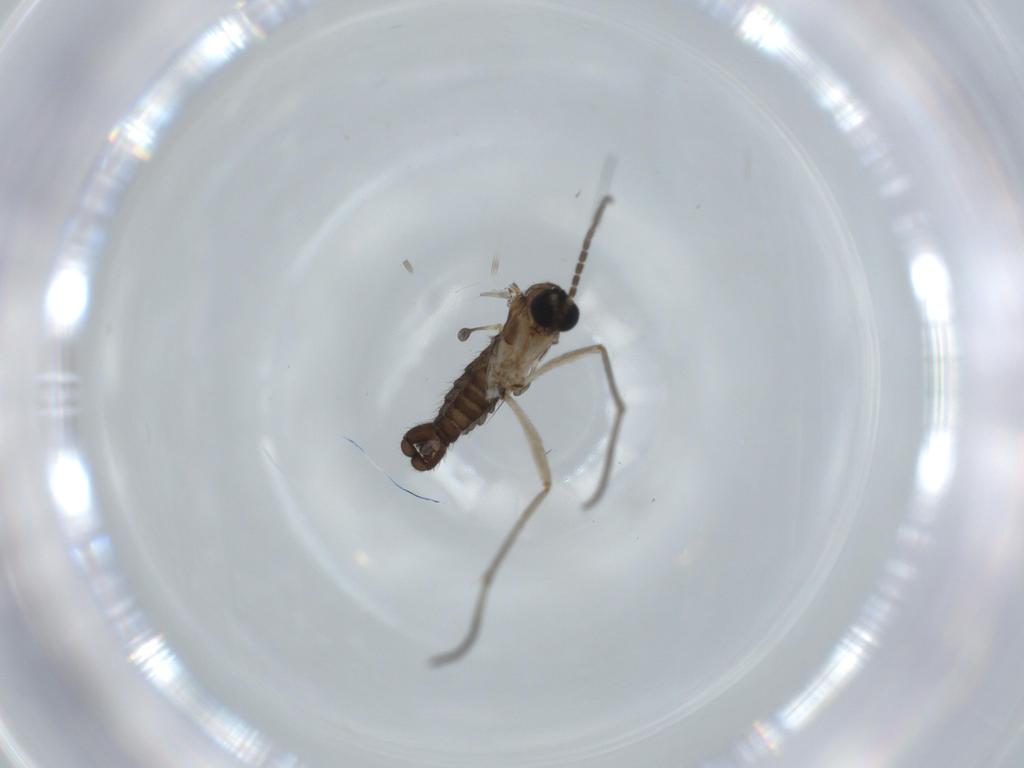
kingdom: Animalia
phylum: Arthropoda
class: Insecta
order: Diptera
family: Sciaridae
